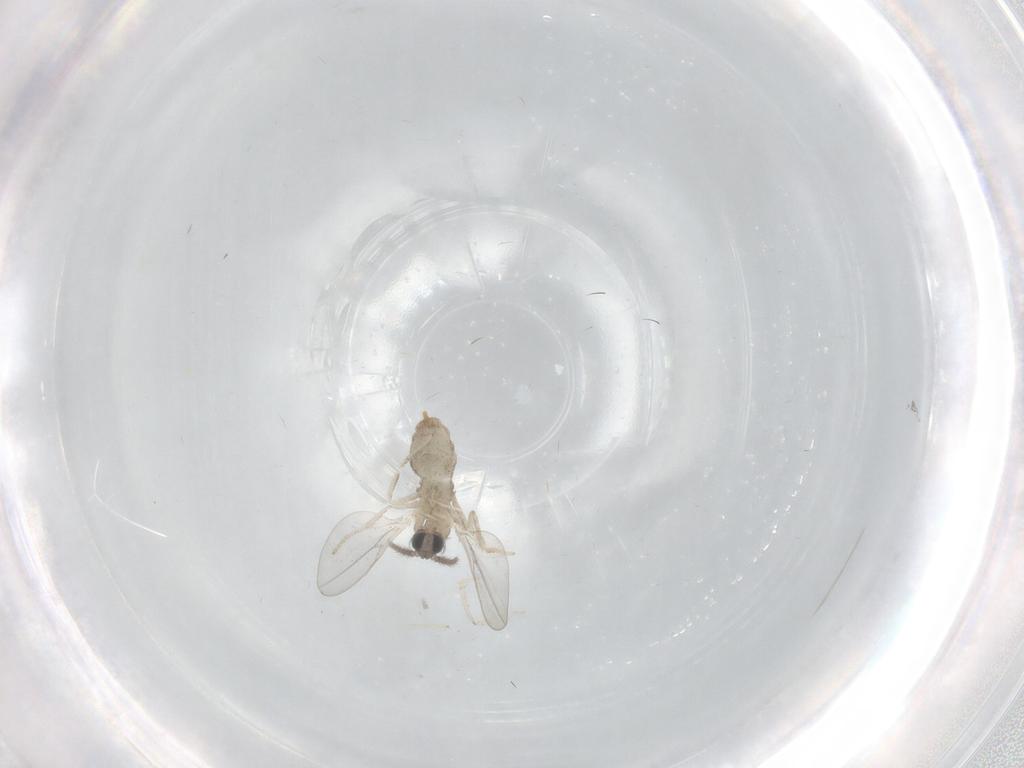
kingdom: Animalia
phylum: Arthropoda
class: Insecta
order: Diptera
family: Cecidomyiidae
